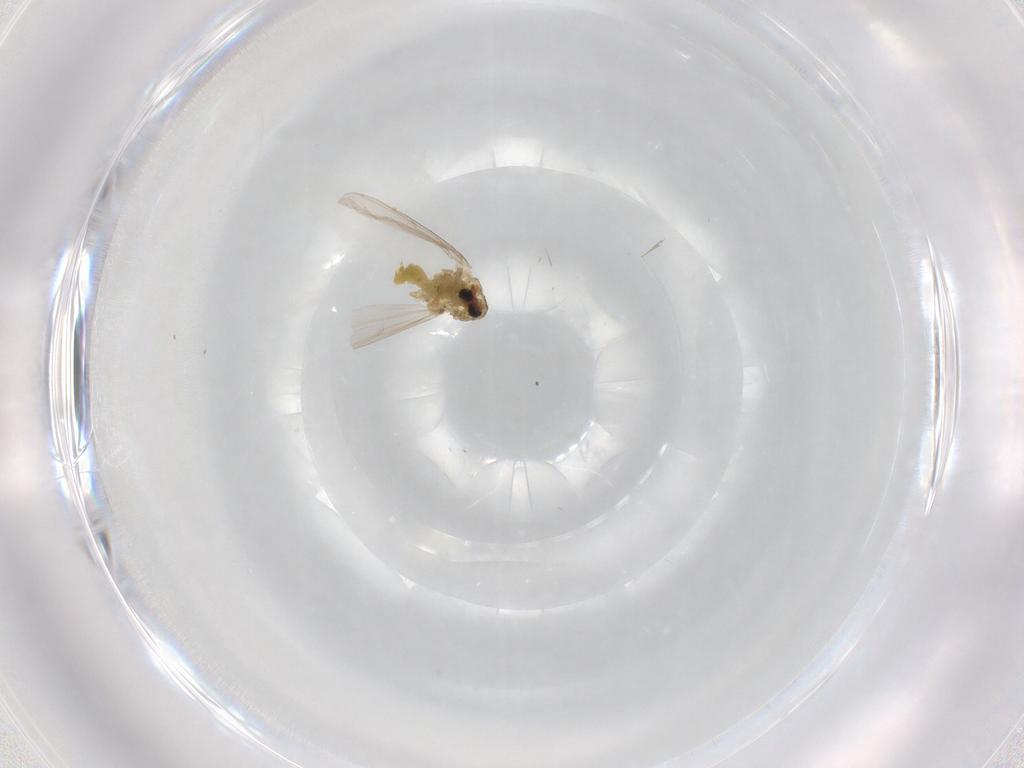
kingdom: Animalia
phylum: Arthropoda
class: Insecta
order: Diptera
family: Chironomidae
